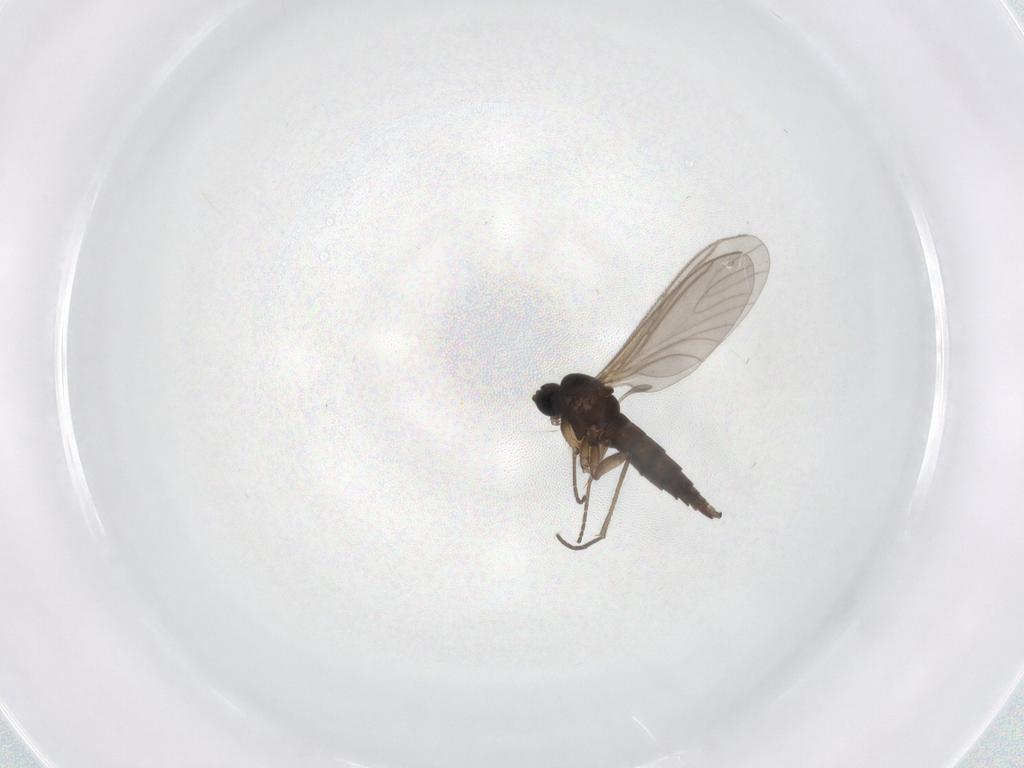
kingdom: Animalia
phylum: Arthropoda
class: Insecta
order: Diptera
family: Sciaridae
